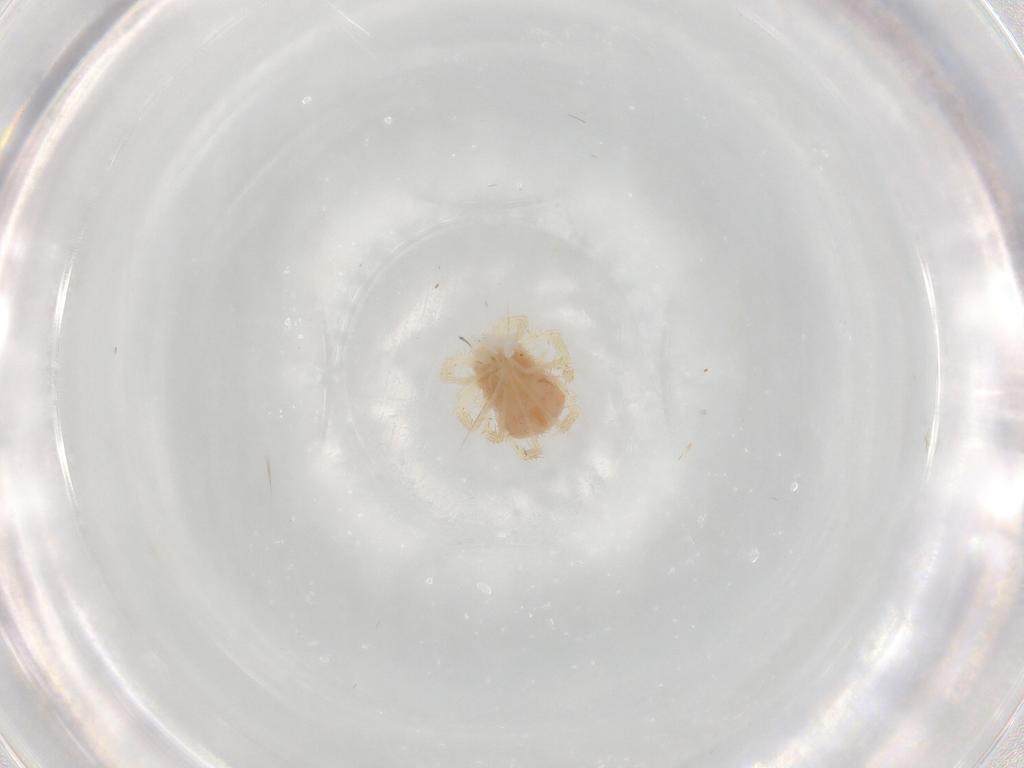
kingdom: Animalia
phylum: Arthropoda
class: Arachnida
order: Trombidiformes
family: Anystidae
